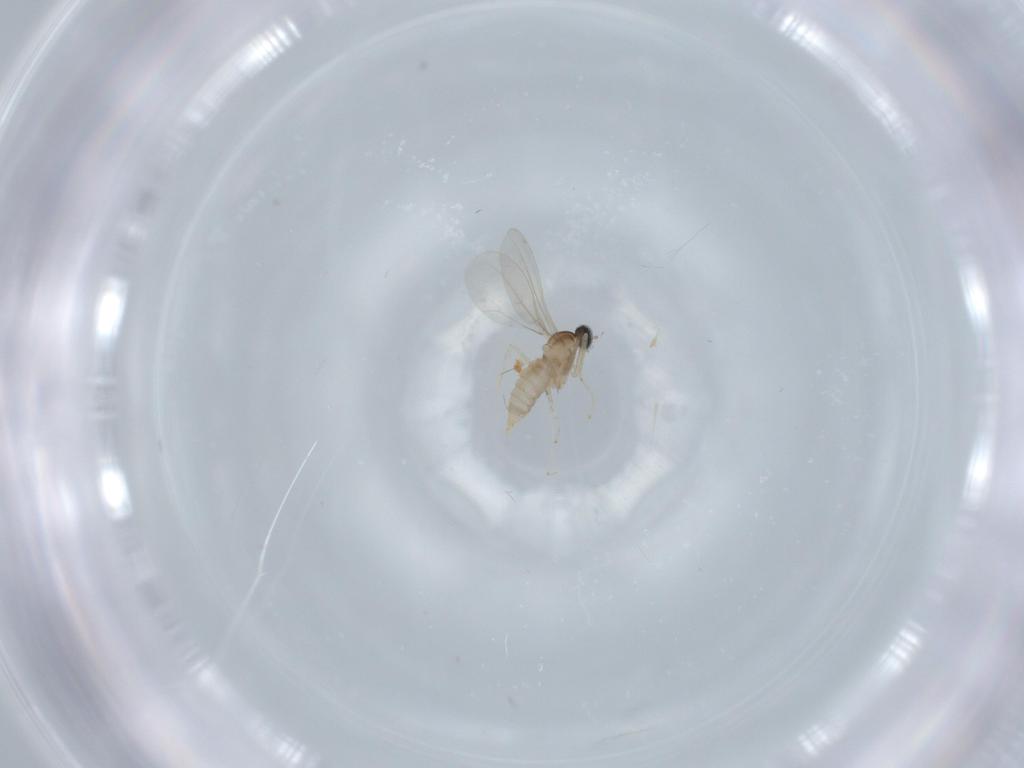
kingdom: Animalia
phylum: Arthropoda
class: Insecta
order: Diptera
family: Cecidomyiidae
